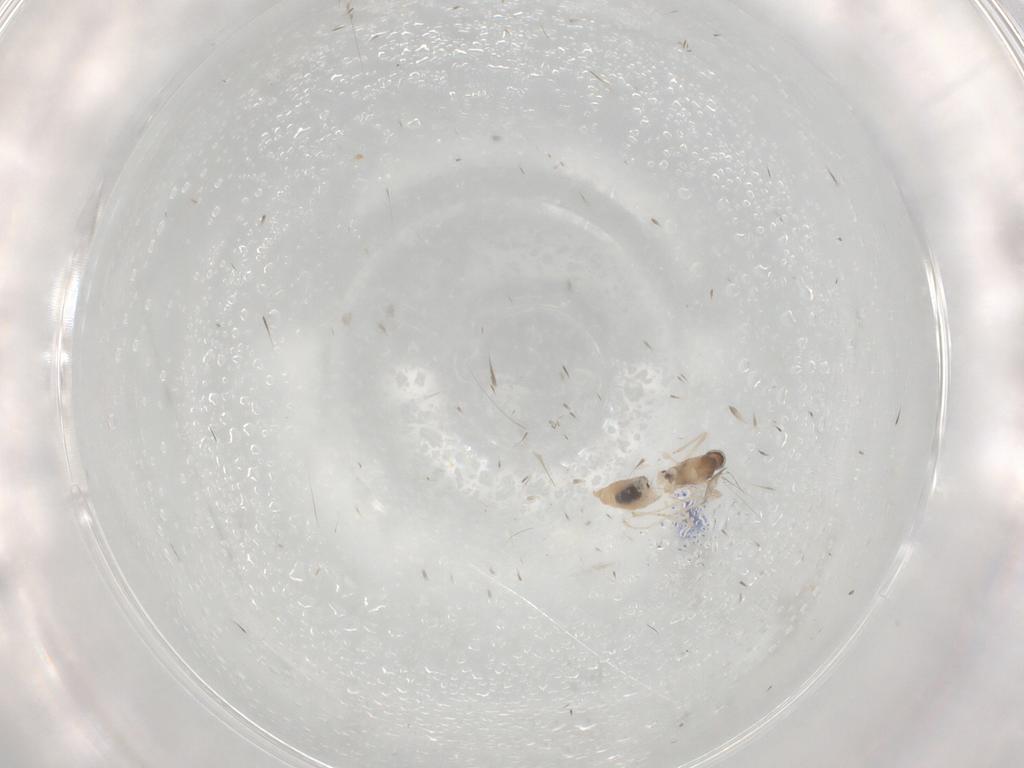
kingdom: Animalia
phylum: Arthropoda
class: Insecta
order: Diptera
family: Cecidomyiidae
